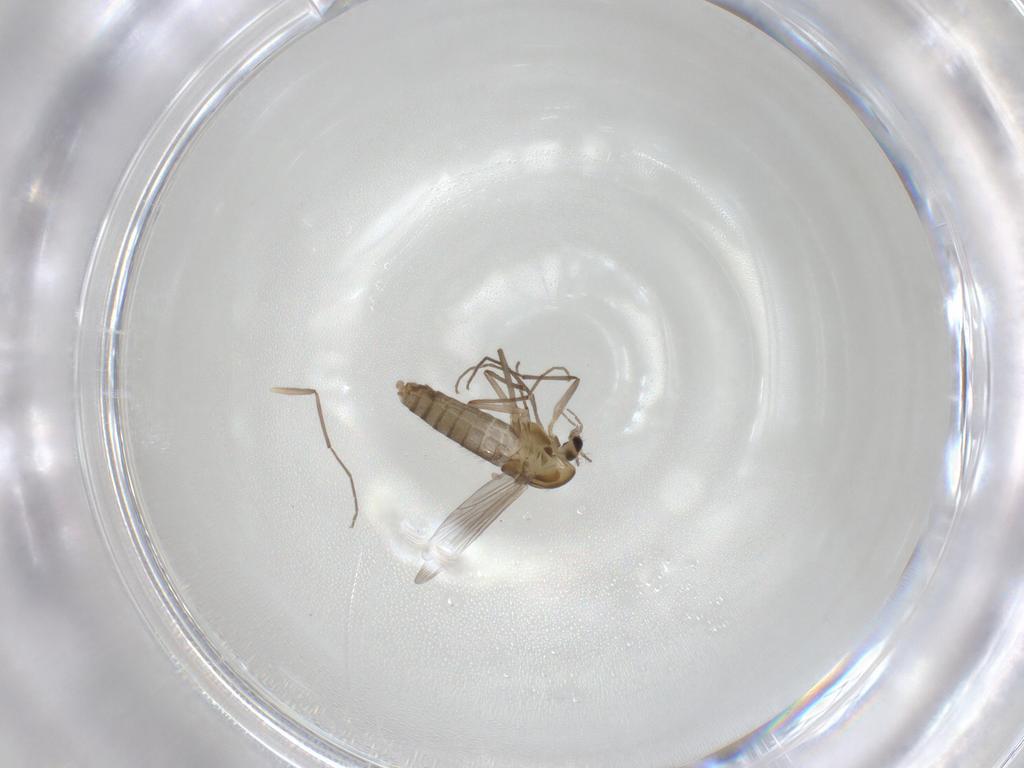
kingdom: Animalia
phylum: Arthropoda
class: Insecta
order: Diptera
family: Chironomidae
